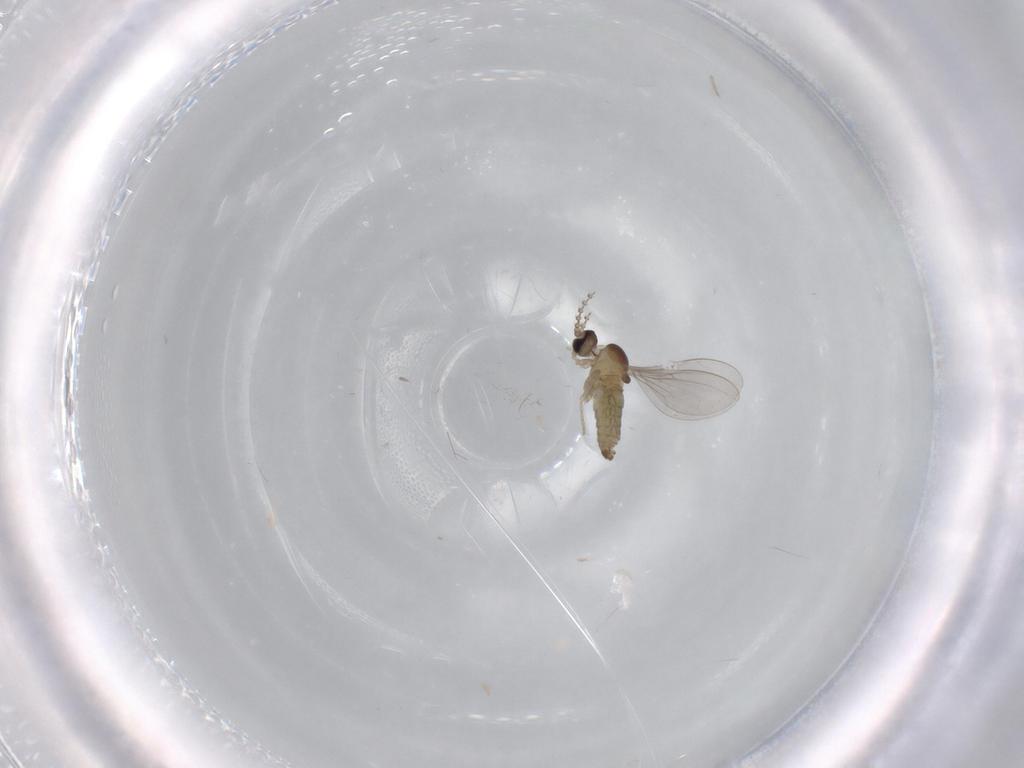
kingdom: Animalia
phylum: Arthropoda
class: Insecta
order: Diptera
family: Cecidomyiidae
